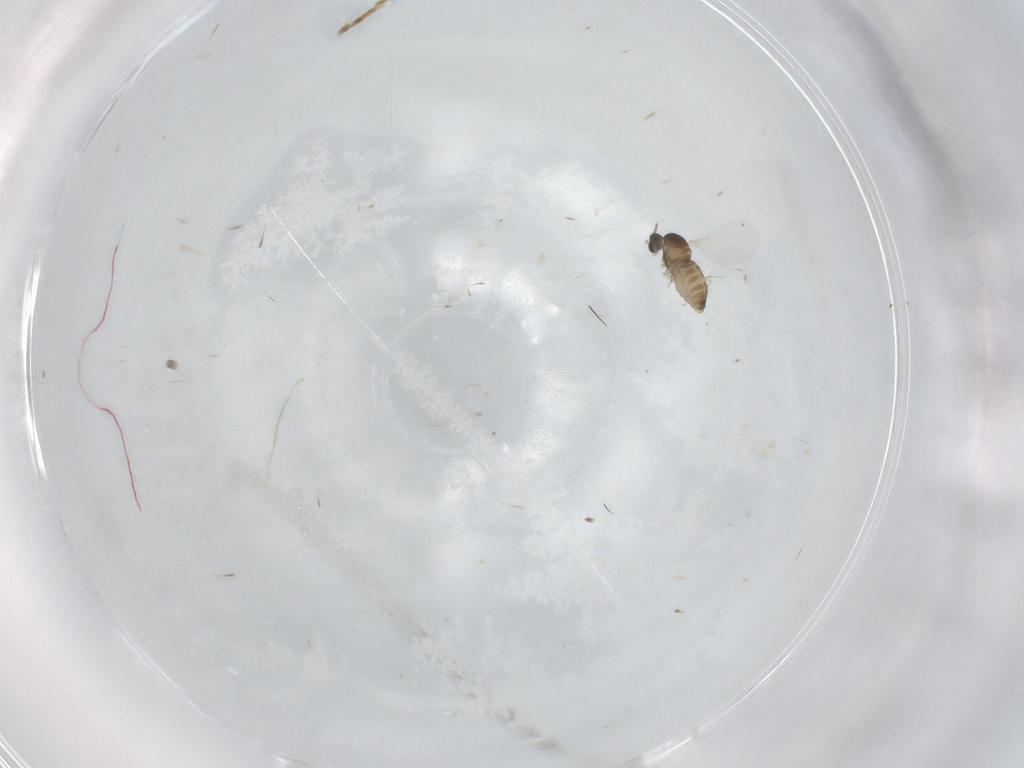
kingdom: Animalia
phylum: Arthropoda
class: Insecta
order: Diptera
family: Cecidomyiidae
